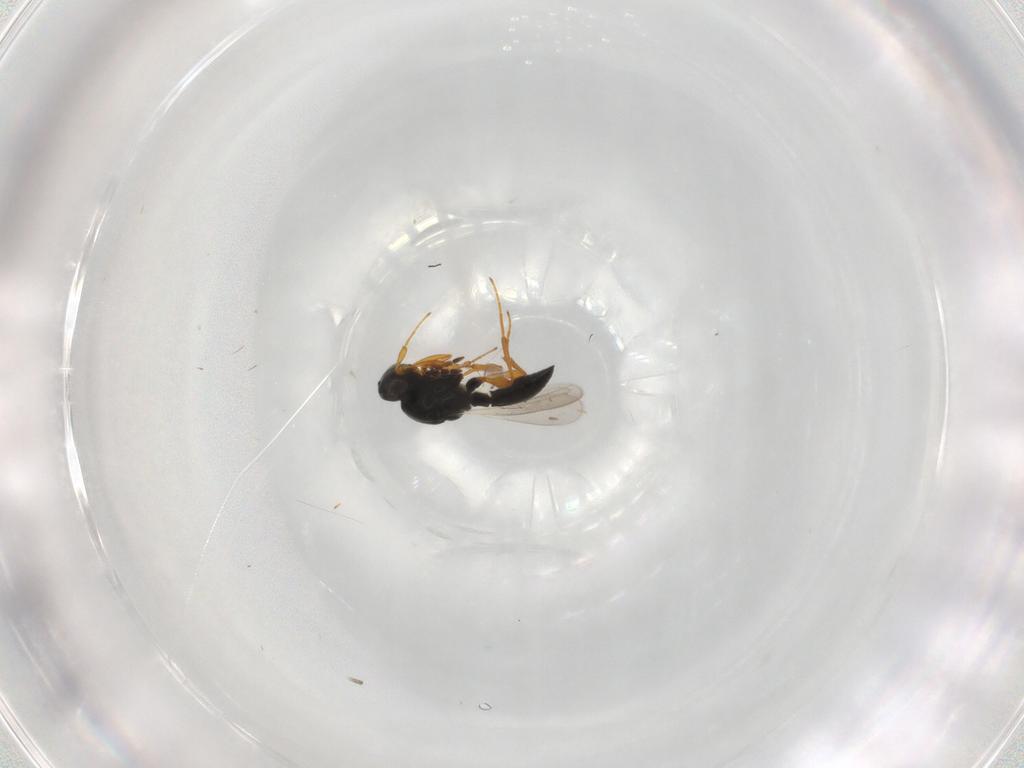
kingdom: Animalia
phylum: Arthropoda
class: Insecta
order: Hymenoptera
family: Platygastridae
